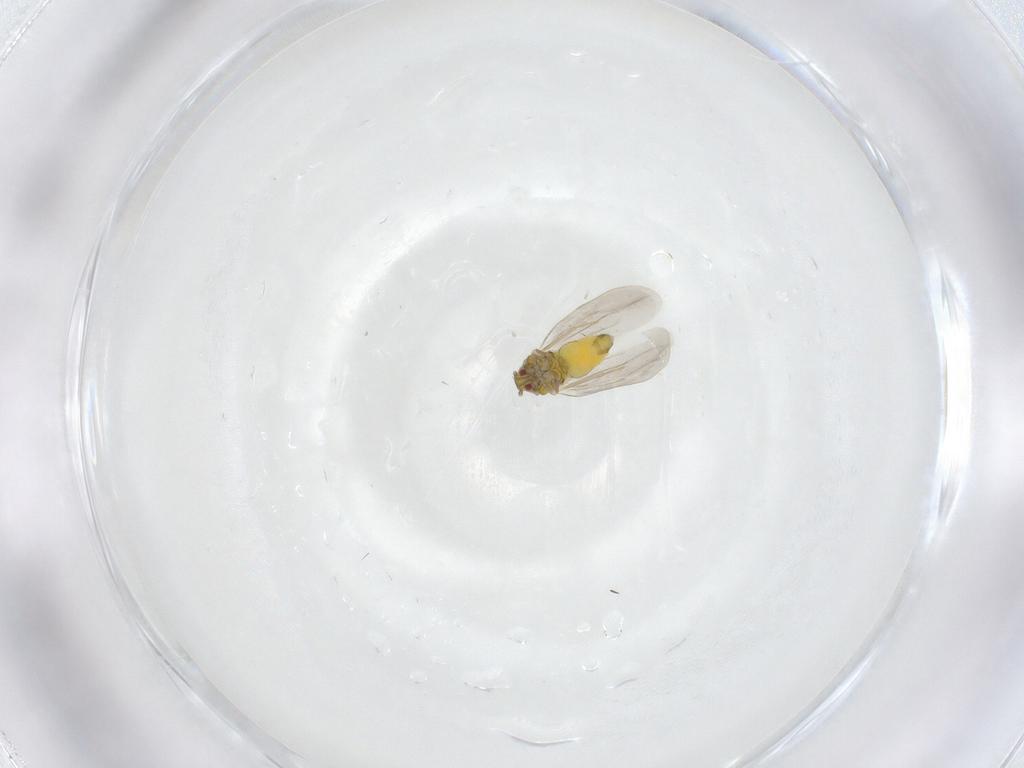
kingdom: Animalia
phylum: Arthropoda
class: Insecta
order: Hemiptera
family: Aleyrodidae
